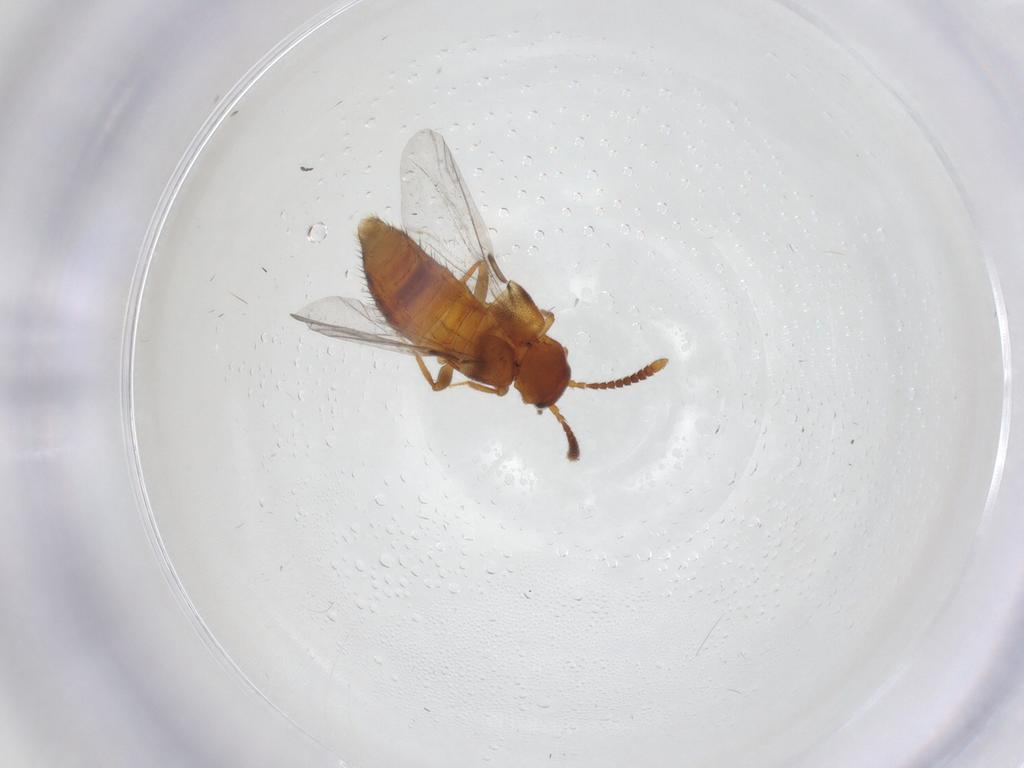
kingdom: Animalia
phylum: Arthropoda
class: Insecta
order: Coleoptera
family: Staphylinidae
